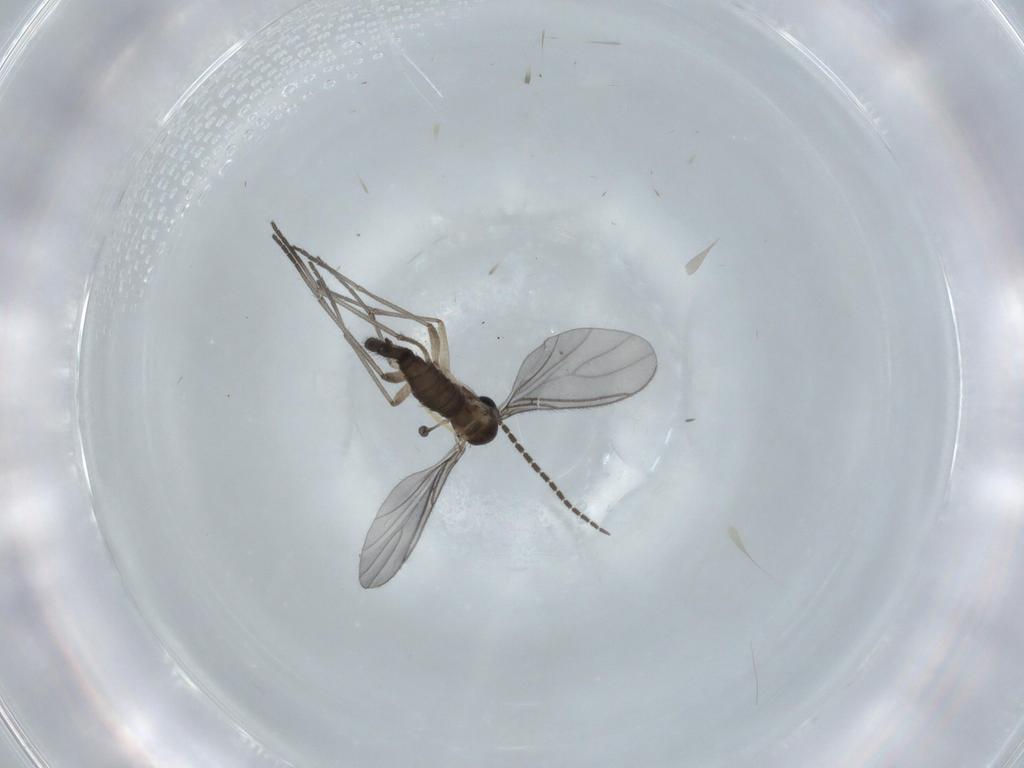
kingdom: Animalia
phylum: Arthropoda
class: Insecta
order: Diptera
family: Sciaridae
